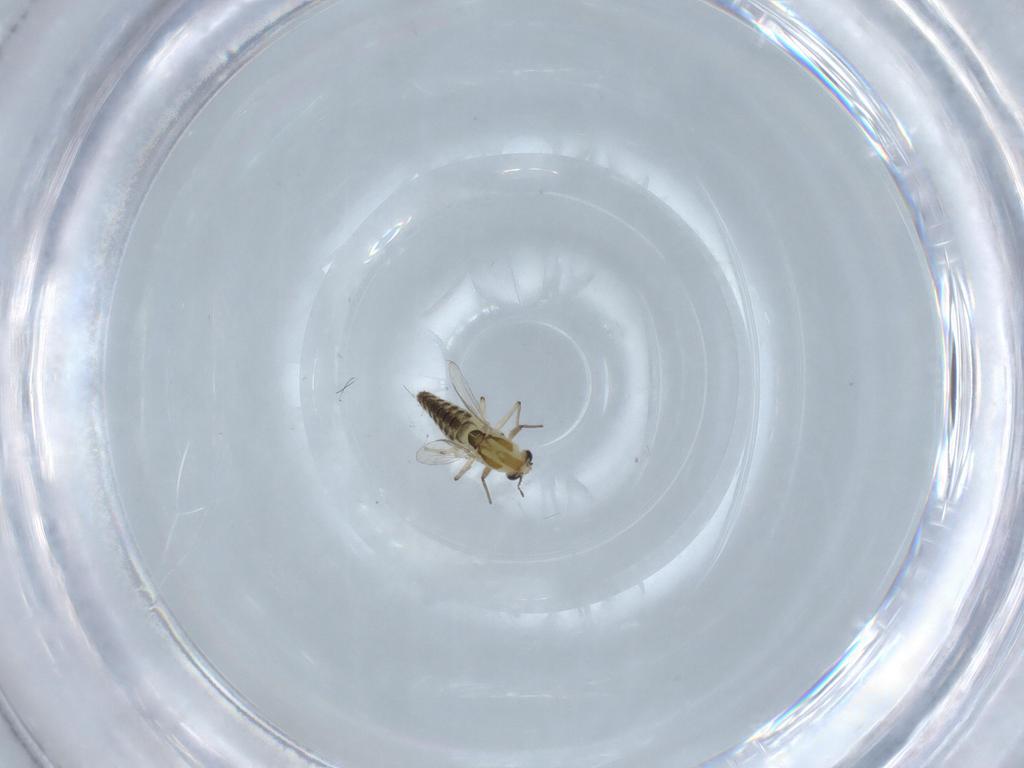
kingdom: Animalia
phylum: Arthropoda
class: Insecta
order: Diptera
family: Chironomidae
